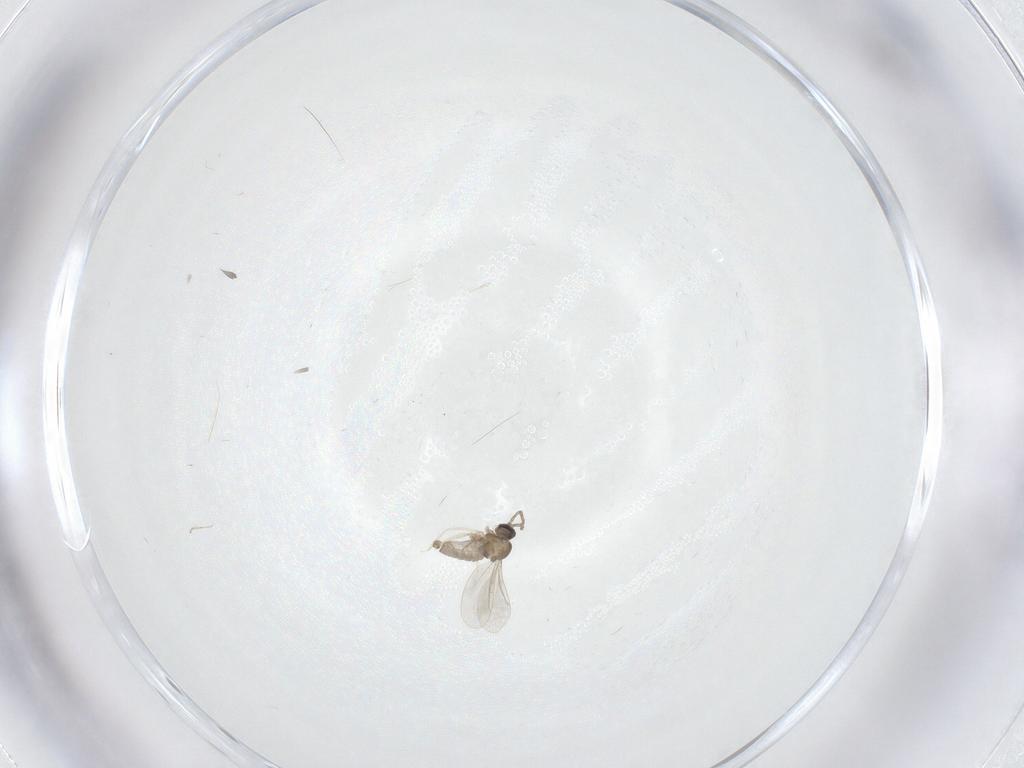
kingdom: Animalia
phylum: Arthropoda
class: Insecta
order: Diptera
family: Cecidomyiidae
